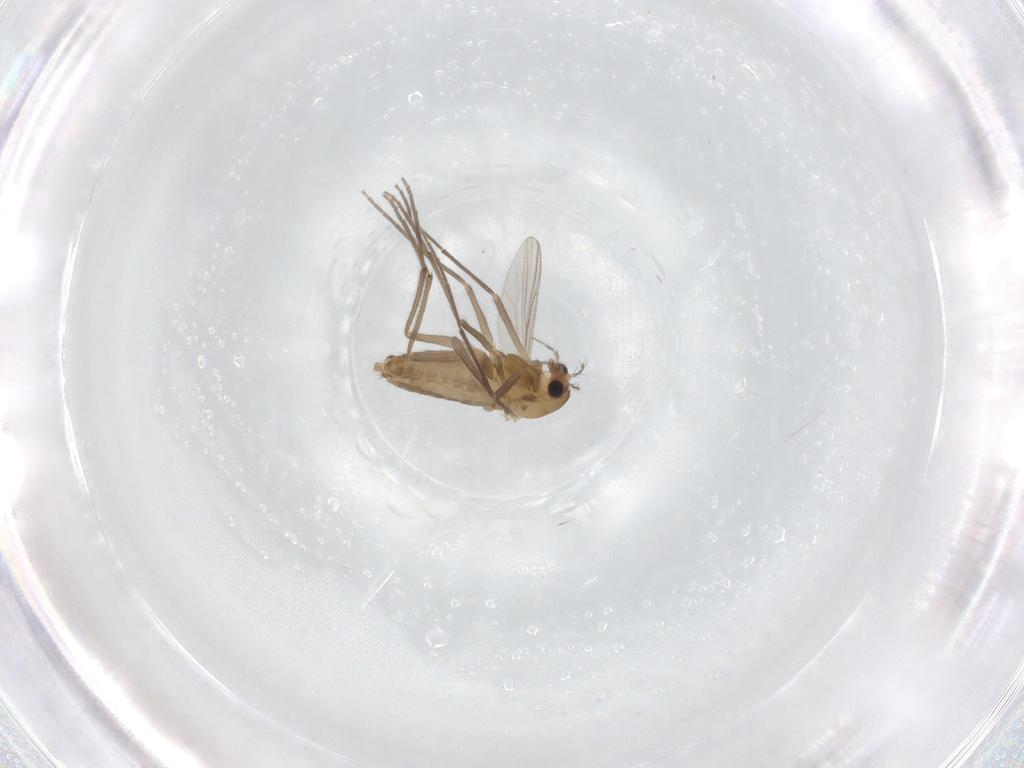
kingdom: Animalia
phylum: Arthropoda
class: Insecta
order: Diptera
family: Chironomidae
